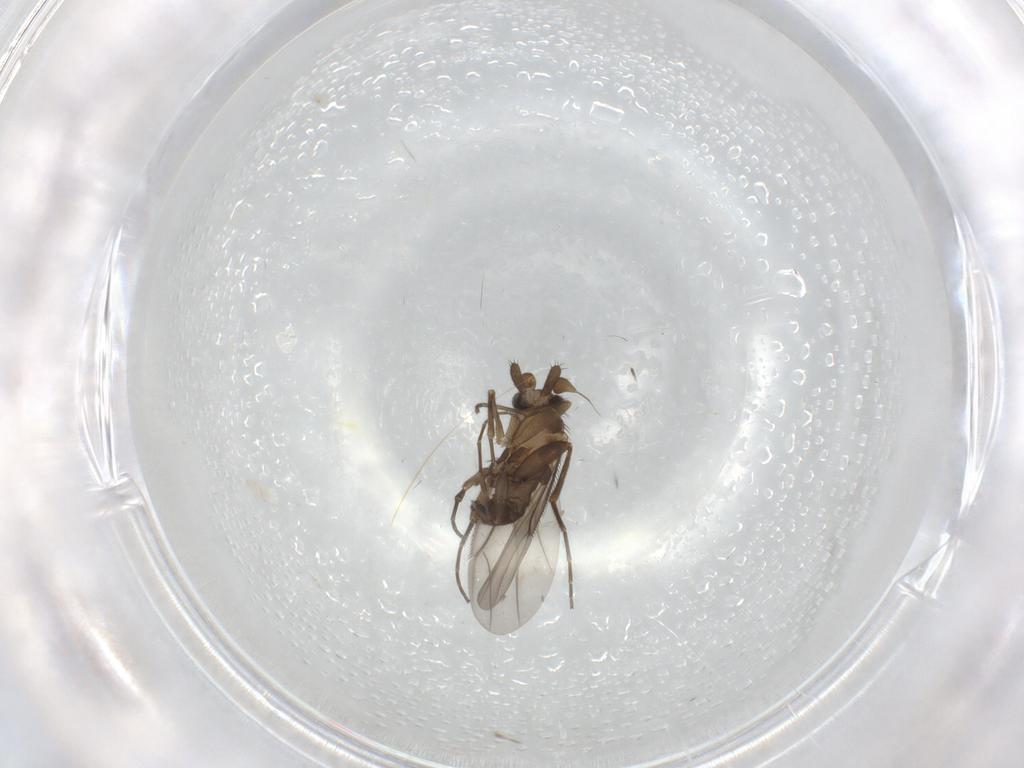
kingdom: Animalia
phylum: Arthropoda
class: Insecta
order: Diptera
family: Phoridae
